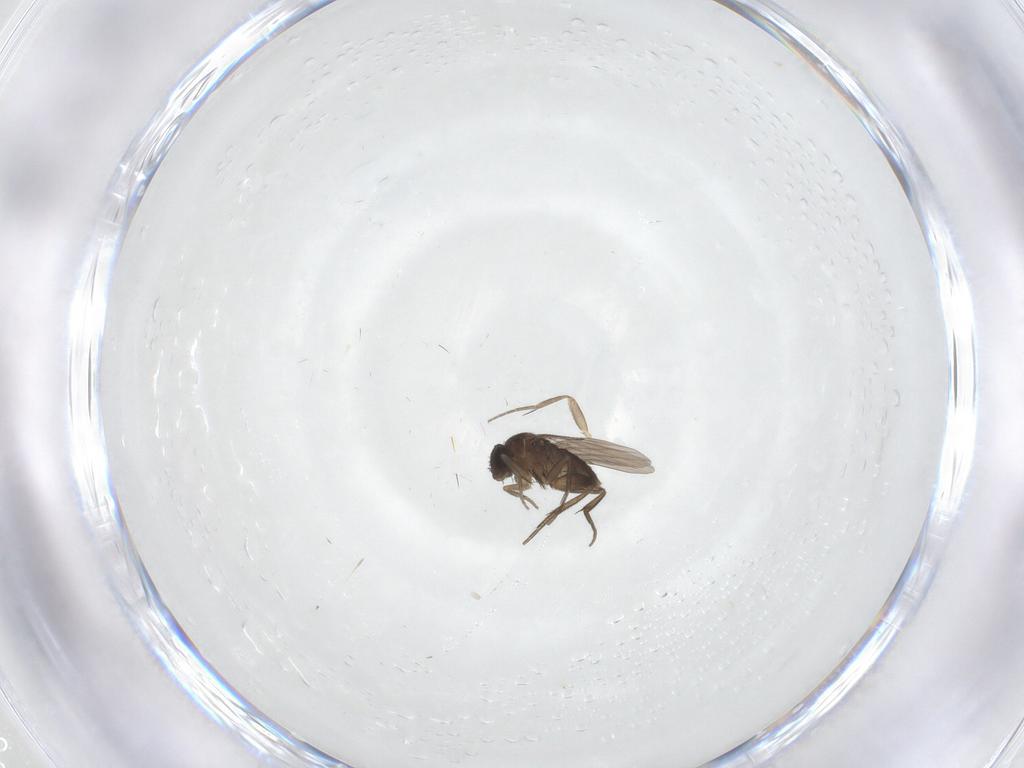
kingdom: Animalia
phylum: Arthropoda
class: Insecta
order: Diptera
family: Phoridae
